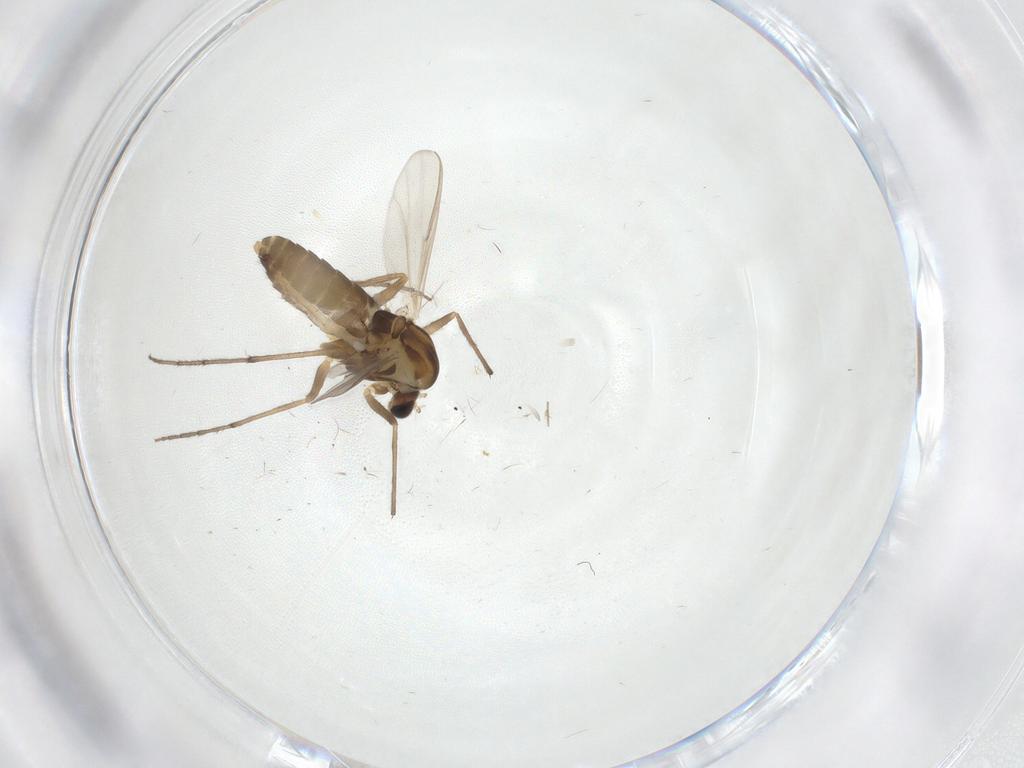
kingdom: Animalia
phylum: Arthropoda
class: Insecta
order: Diptera
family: Chironomidae
